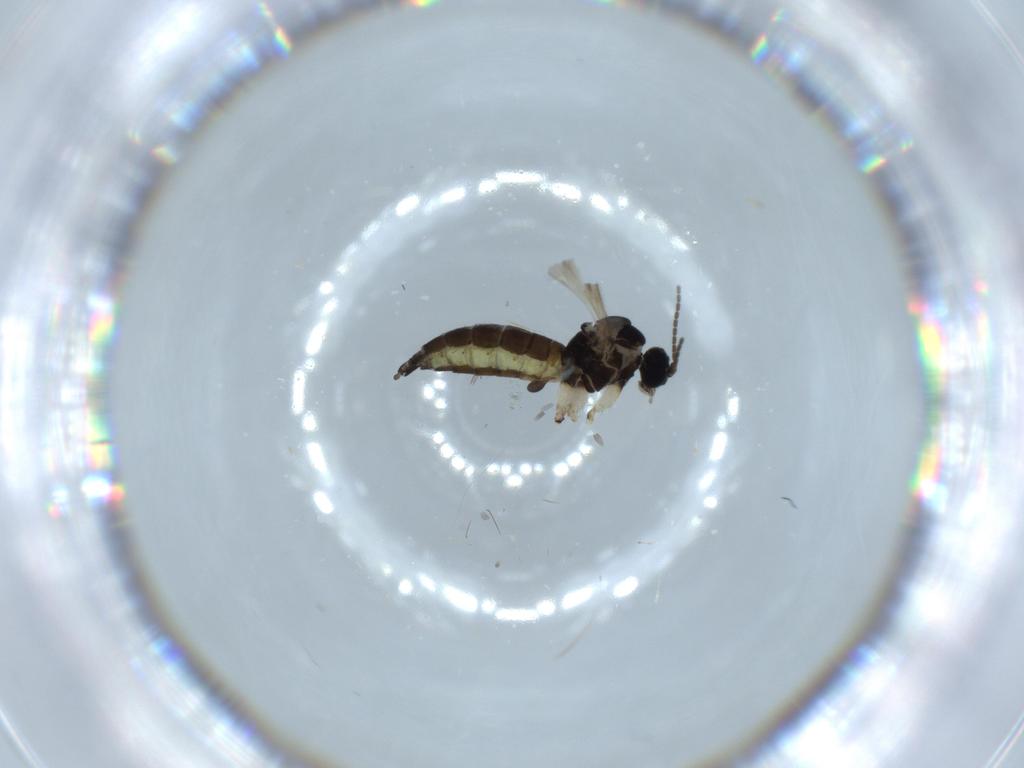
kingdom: Animalia
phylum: Arthropoda
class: Insecta
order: Diptera
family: Sciaridae
